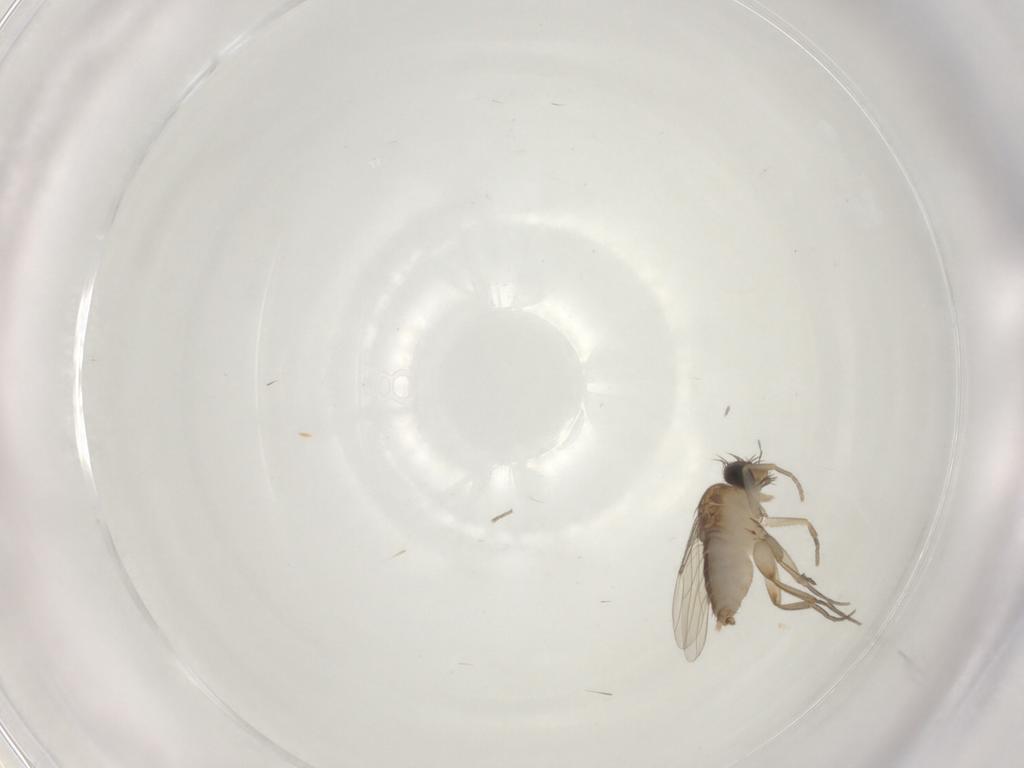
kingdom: Animalia
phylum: Arthropoda
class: Insecta
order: Diptera
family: Phoridae
